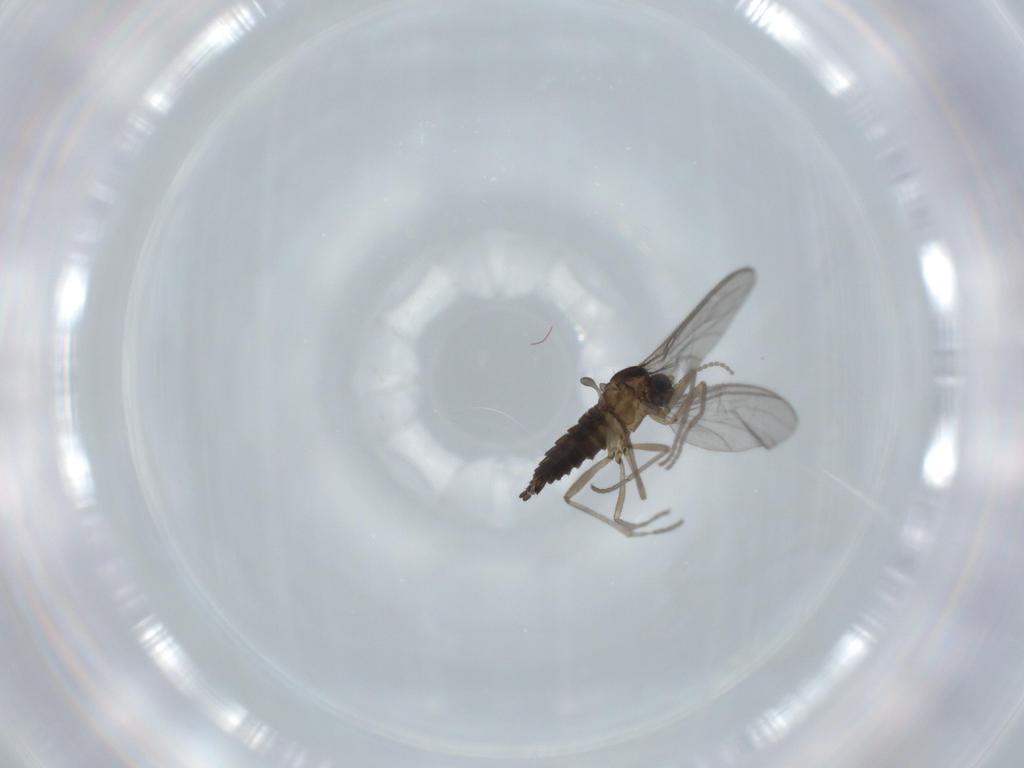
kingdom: Animalia
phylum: Arthropoda
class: Insecta
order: Diptera
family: Sciaridae
